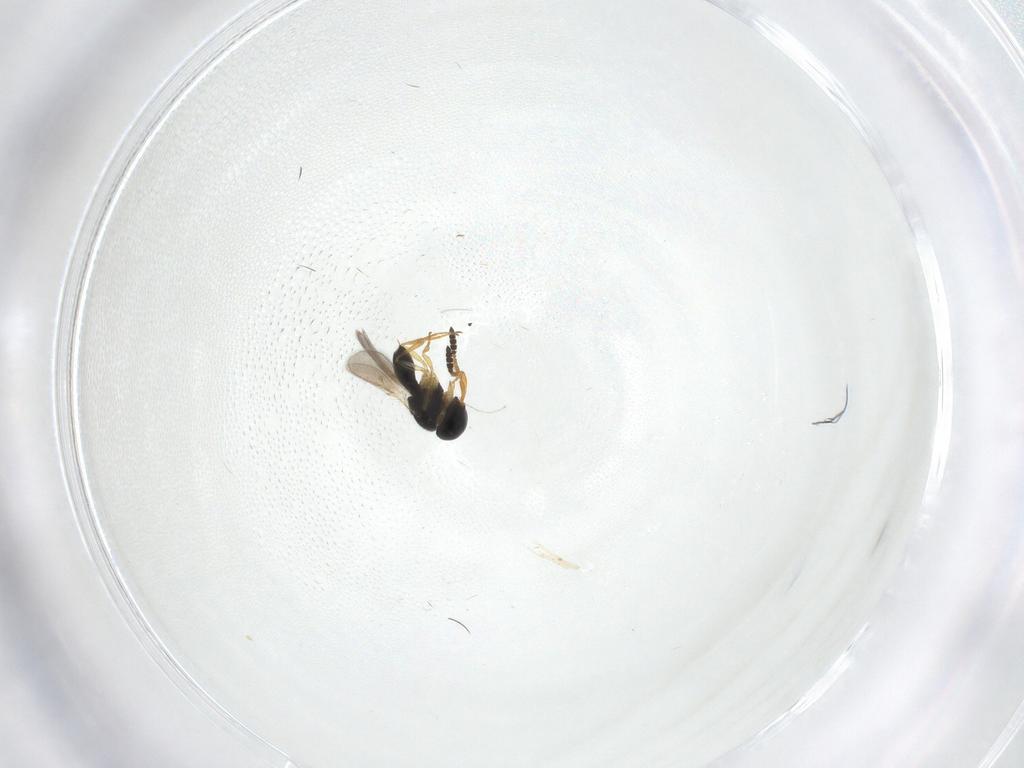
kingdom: Animalia
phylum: Arthropoda
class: Insecta
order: Hymenoptera
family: Scelionidae
